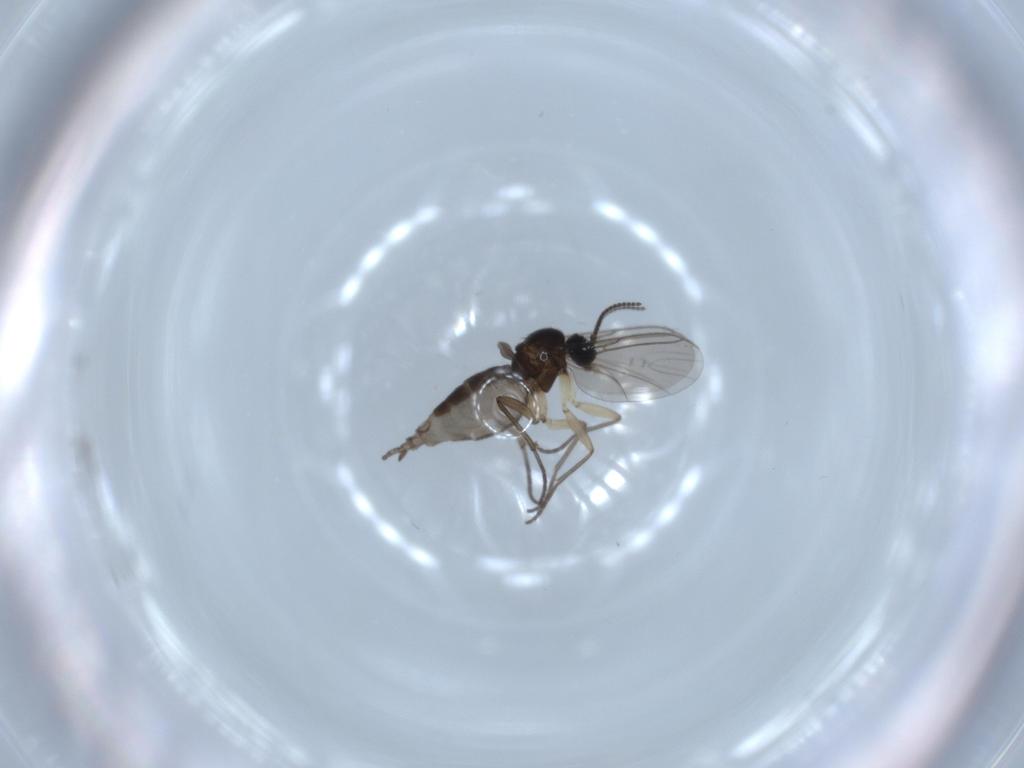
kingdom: Animalia
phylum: Arthropoda
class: Insecta
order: Diptera
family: Sciaridae
